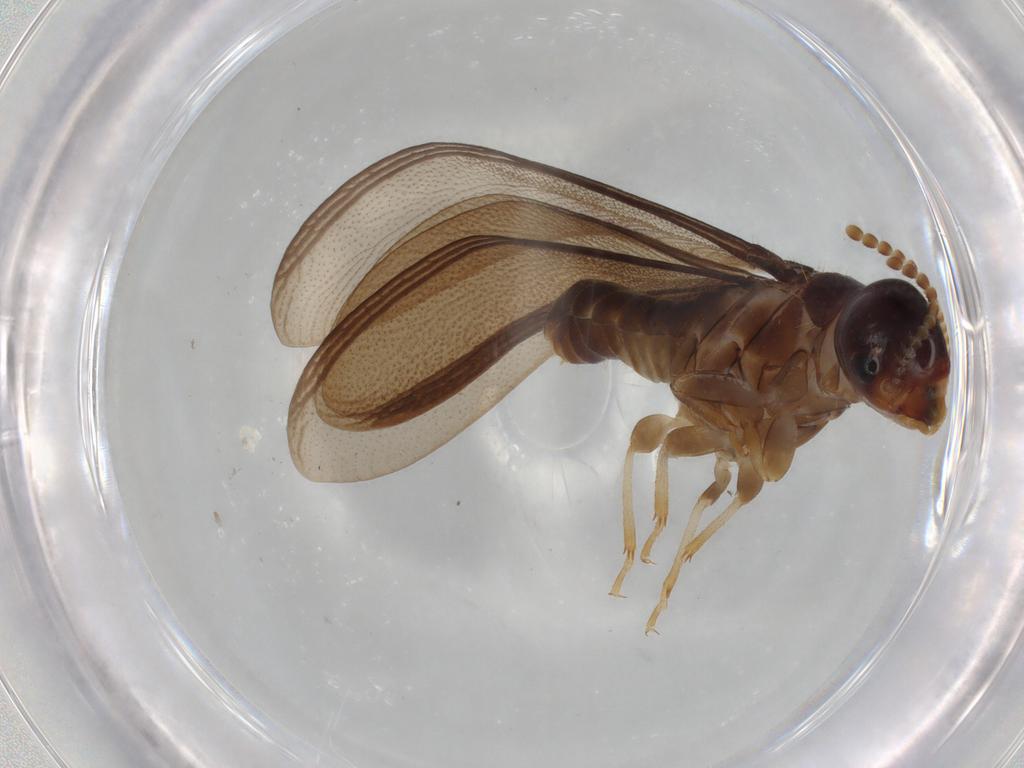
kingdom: Animalia
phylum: Arthropoda
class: Insecta
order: Blattodea
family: Kalotermitidae
